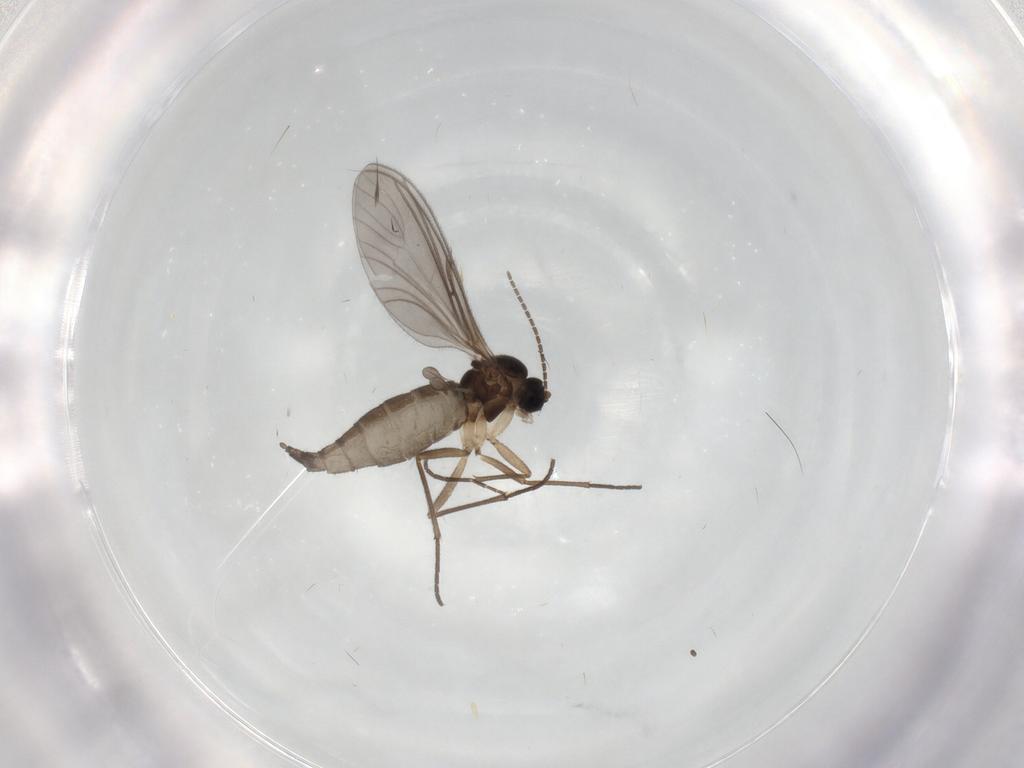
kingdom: Animalia
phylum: Arthropoda
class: Insecta
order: Diptera
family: Sciaridae
